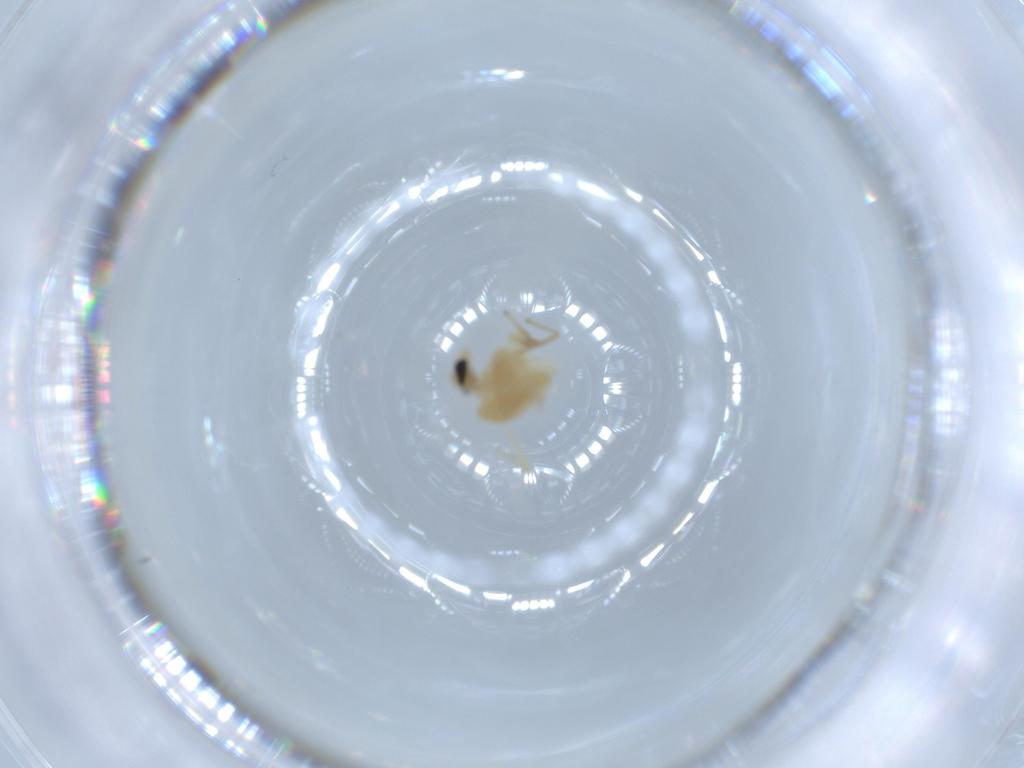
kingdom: Animalia
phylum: Arthropoda
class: Insecta
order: Diptera
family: Chironomidae
